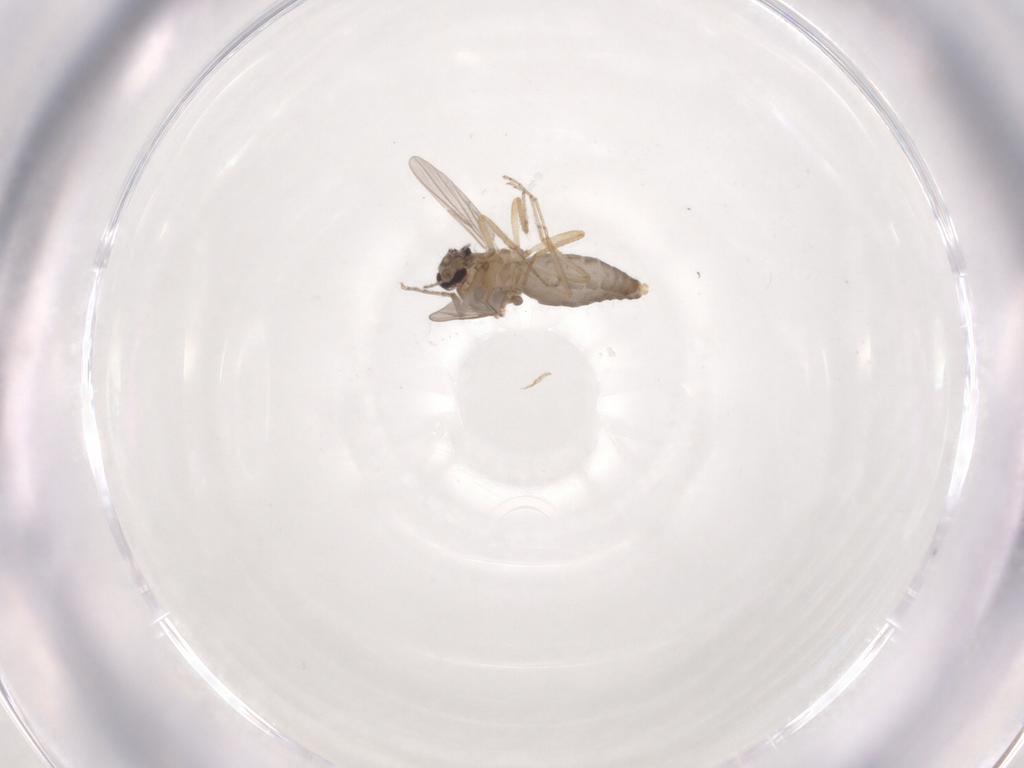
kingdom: Animalia
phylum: Arthropoda
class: Insecta
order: Diptera
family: Ceratopogonidae
